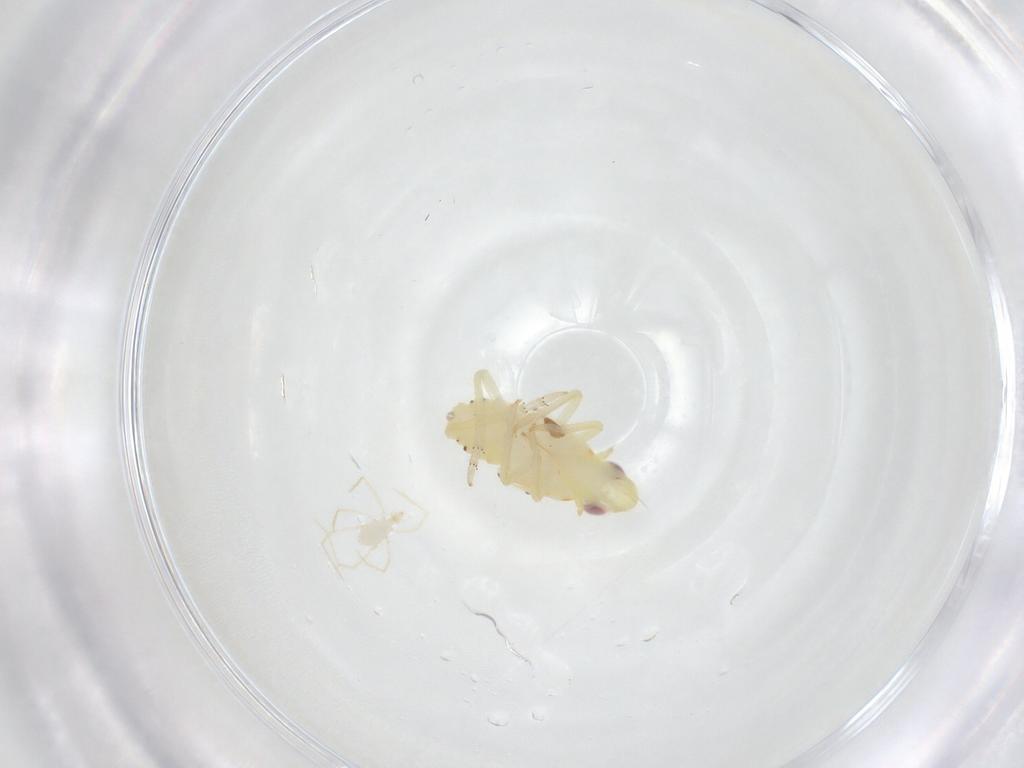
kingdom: Animalia
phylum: Arthropoda
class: Insecta
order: Hemiptera
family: Tropiduchidae
